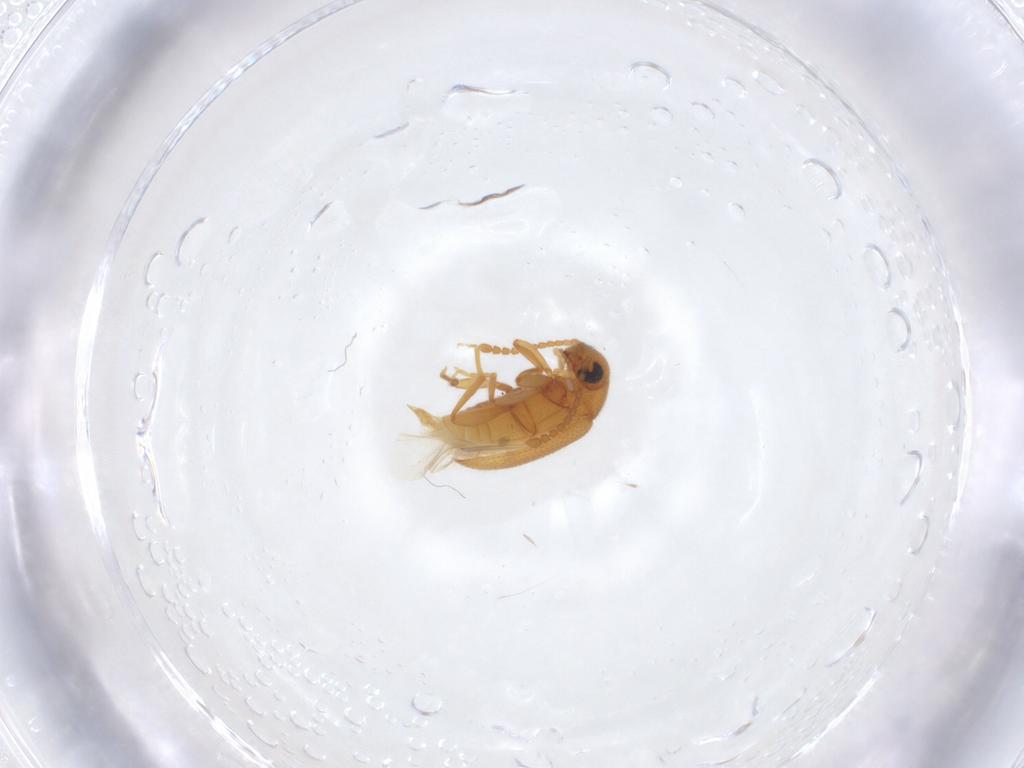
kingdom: Animalia
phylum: Arthropoda
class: Insecta
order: Coleoptera
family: Aderidae
